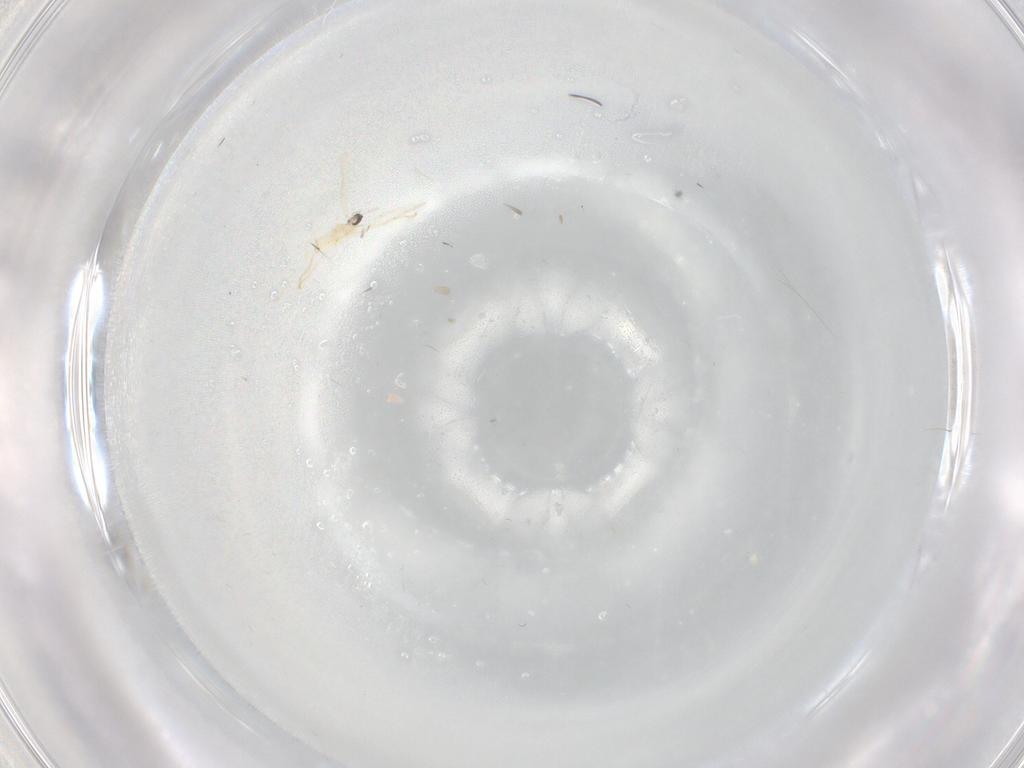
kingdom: Animalia
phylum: Arthropoda
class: Insecta
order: Diptera
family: Cecidomyiidae
